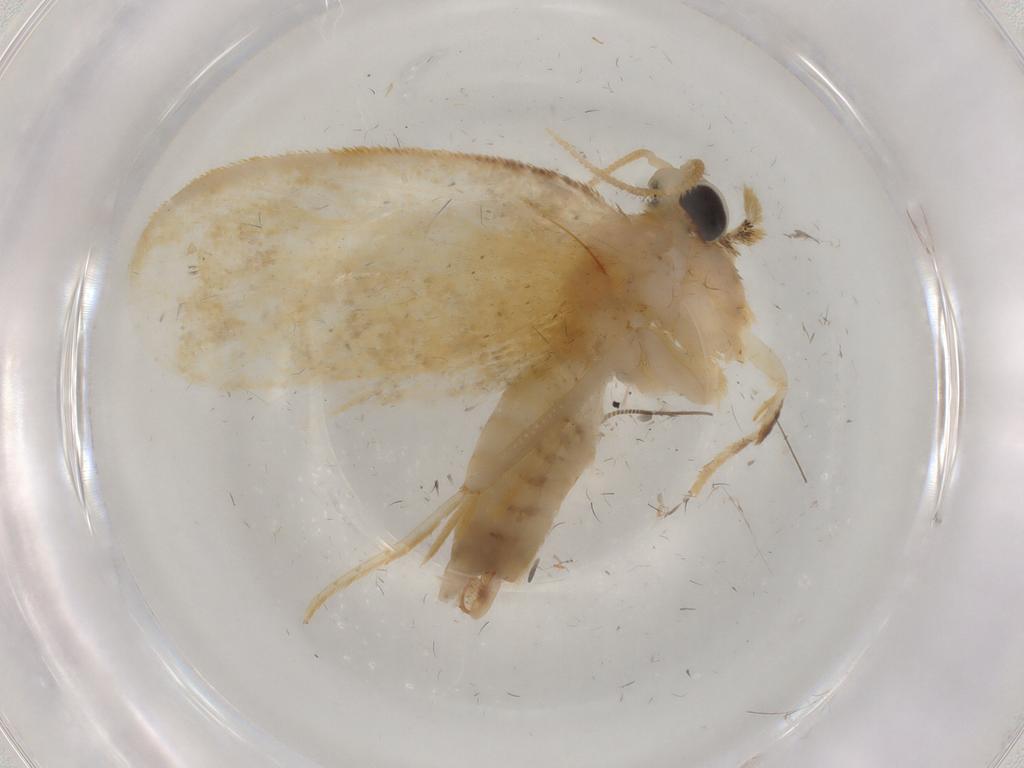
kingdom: Animalia
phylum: Arthropoda
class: Insecta
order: Lepidoptera
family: Psychidae
